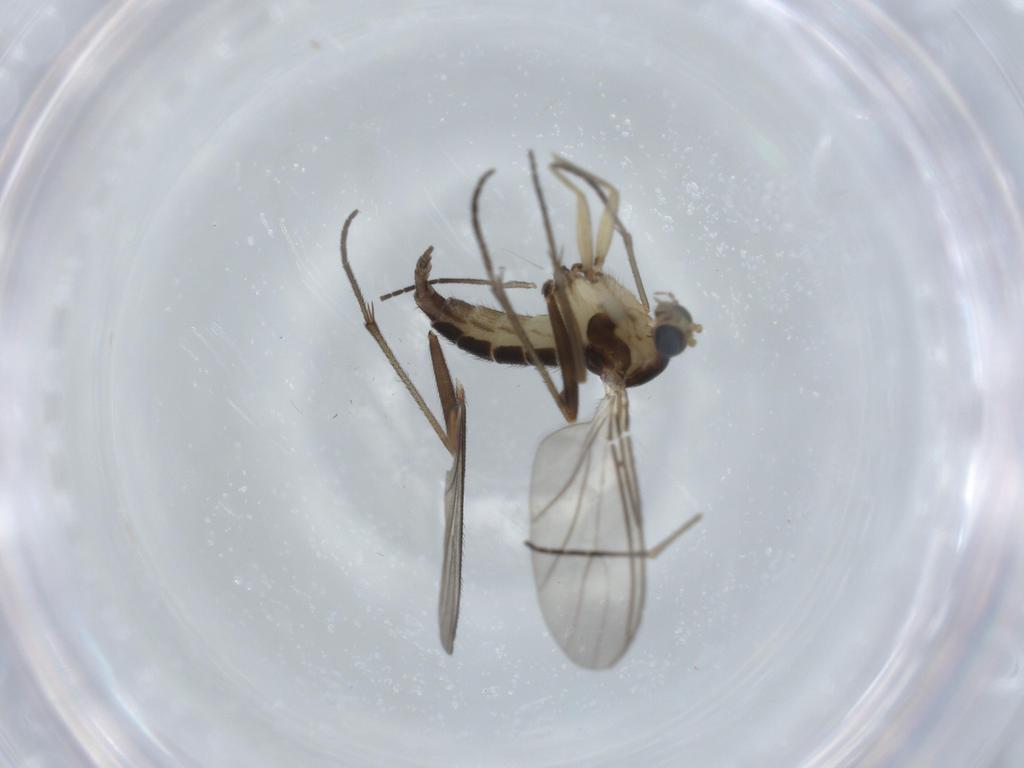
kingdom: Animalia
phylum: Arthropoda
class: Insecta
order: Diptera
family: Sciaridae
